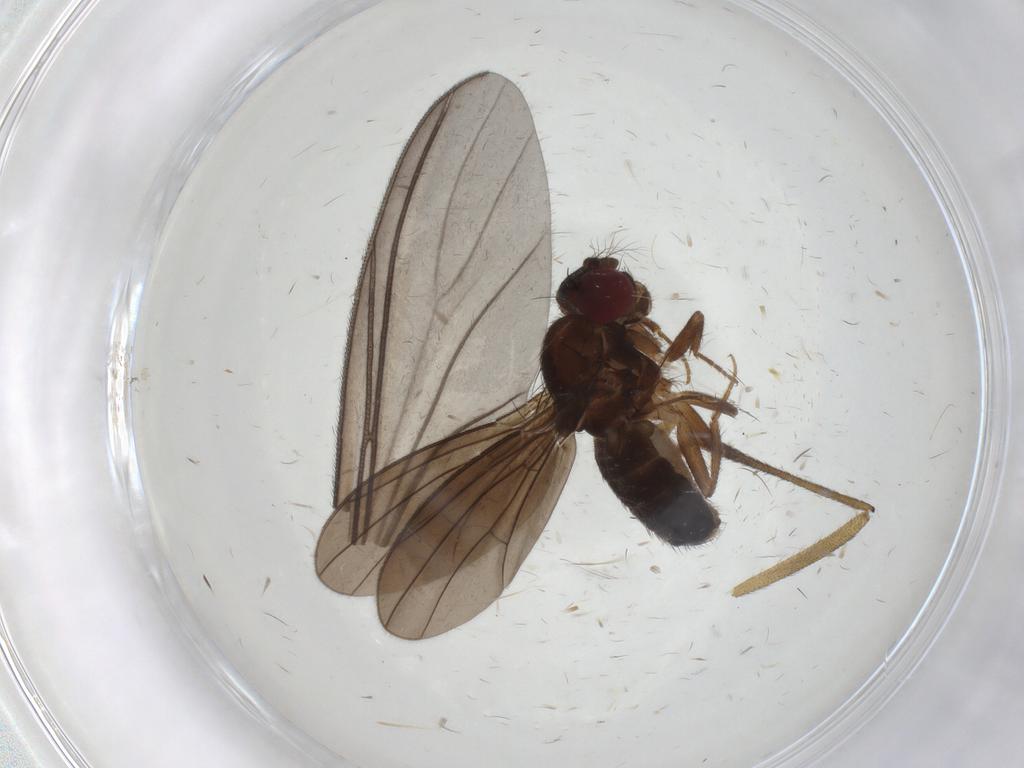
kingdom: Animalia
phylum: Arthropoda
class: Insecta
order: Diptera
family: Drosophilidae
